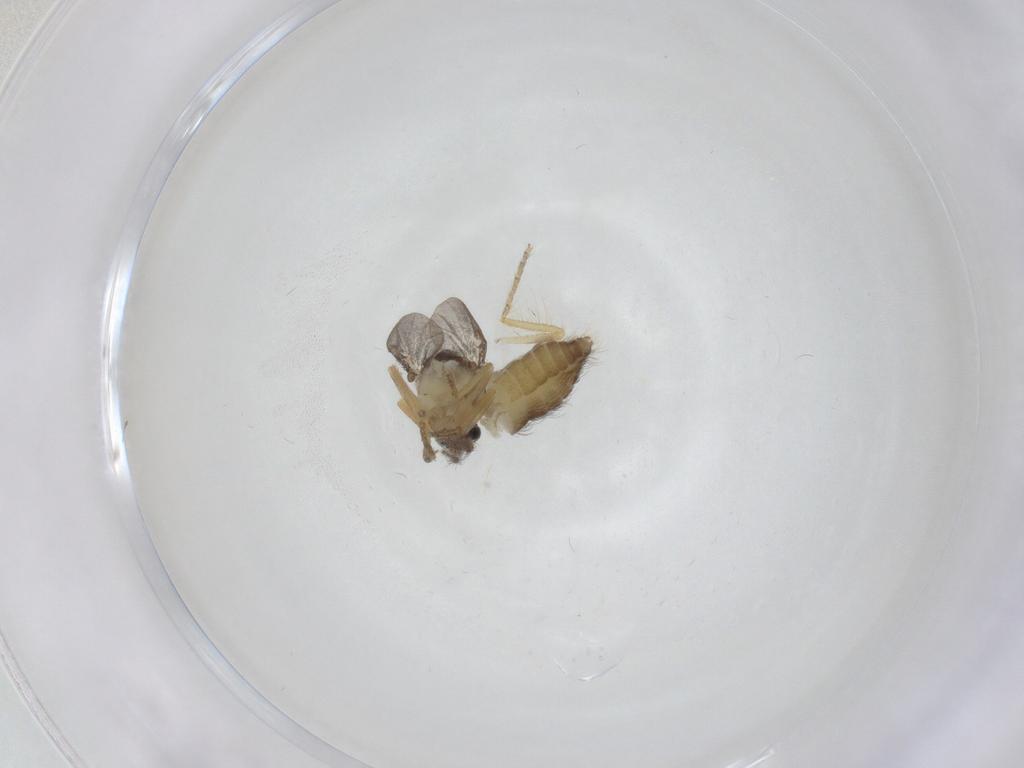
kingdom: Animalia
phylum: Arthropoda
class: Insecta
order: Diptera
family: Ceratopogonidae
